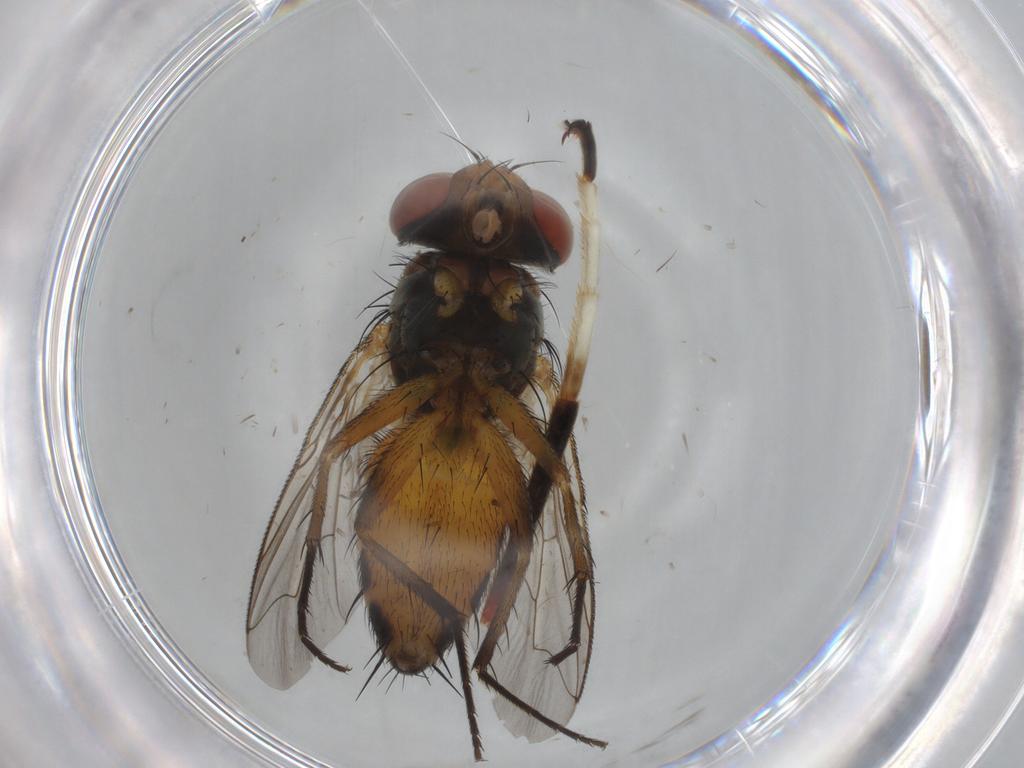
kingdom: Animalia
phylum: Arthropoda
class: Insecta
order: Diptera
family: Sarcophagidae
